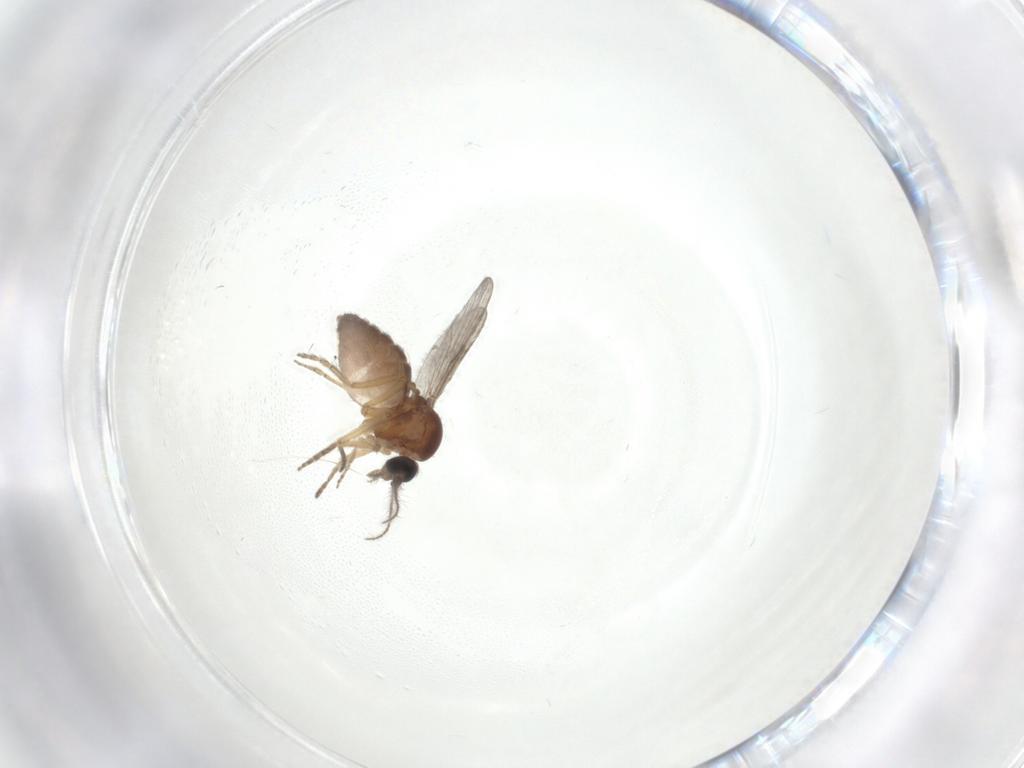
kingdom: Animalia
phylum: Arthropoda
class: Insecta
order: Diptera
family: Ceratopogonidae
